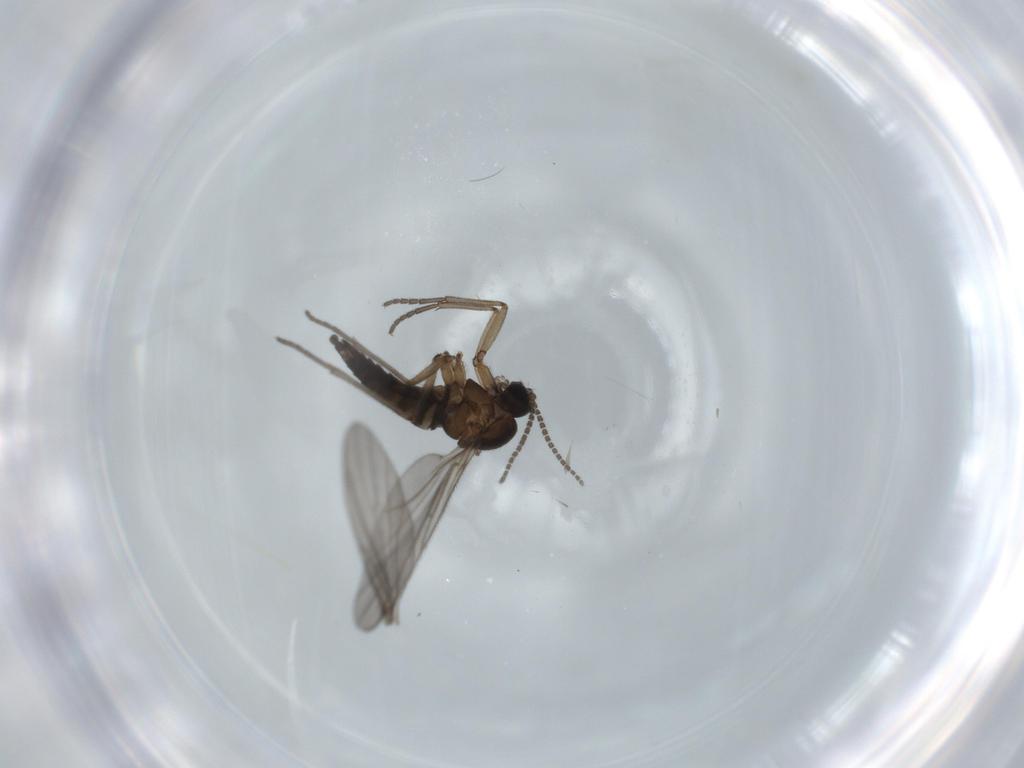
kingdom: Animalia
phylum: Arthropoda
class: Insecta
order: Diptera
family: Sciaridae
